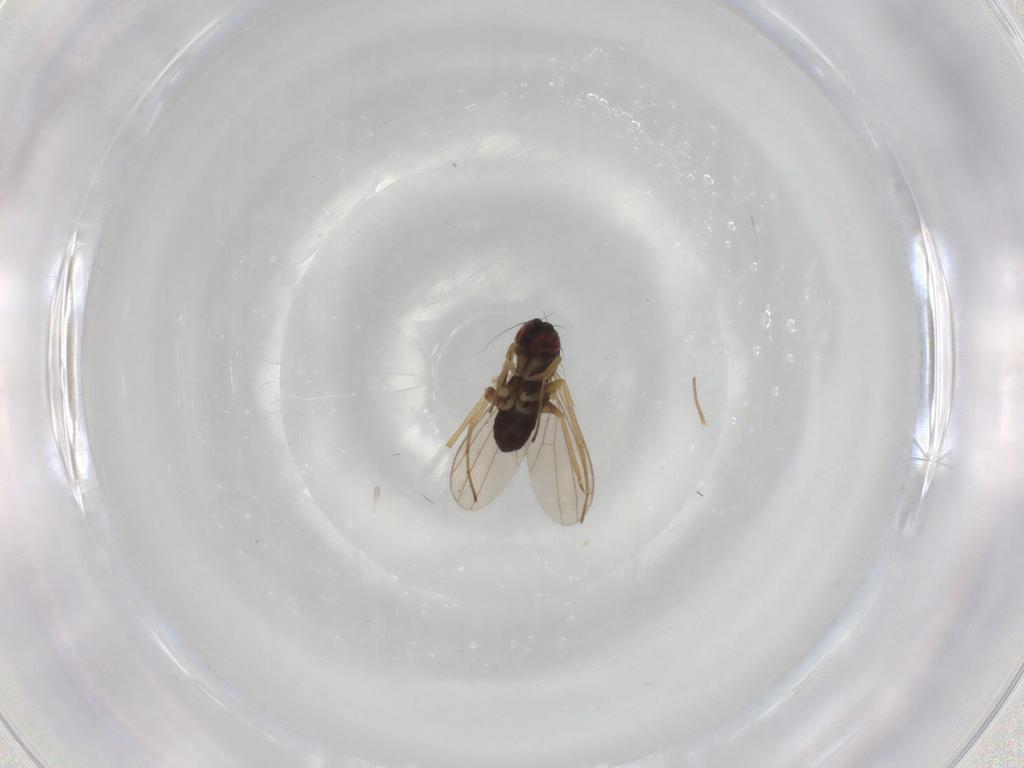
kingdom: Animalia
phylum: Arthropoda
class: Insecta
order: Diptera
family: Dolichopodidae
